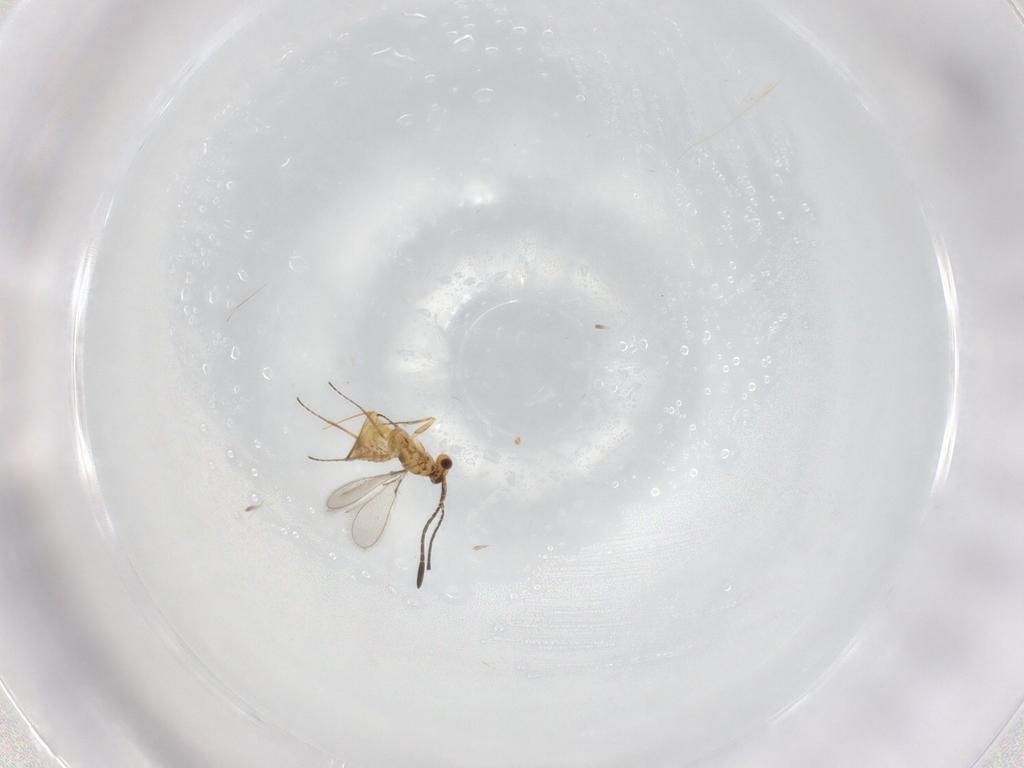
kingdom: Animalia
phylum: Arthropoda
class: Insecta
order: Hymenoptera
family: Mymaridae
